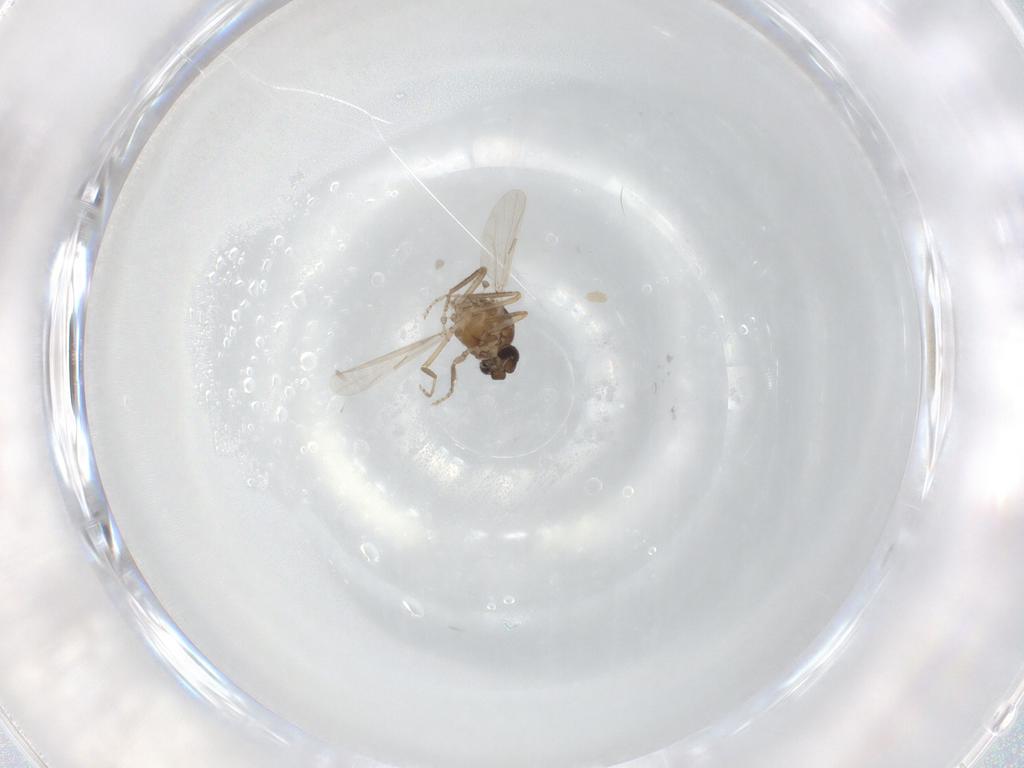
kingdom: Animalia
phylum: Arthropoda
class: Insecta
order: Diptera
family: Ceratopogonidae
